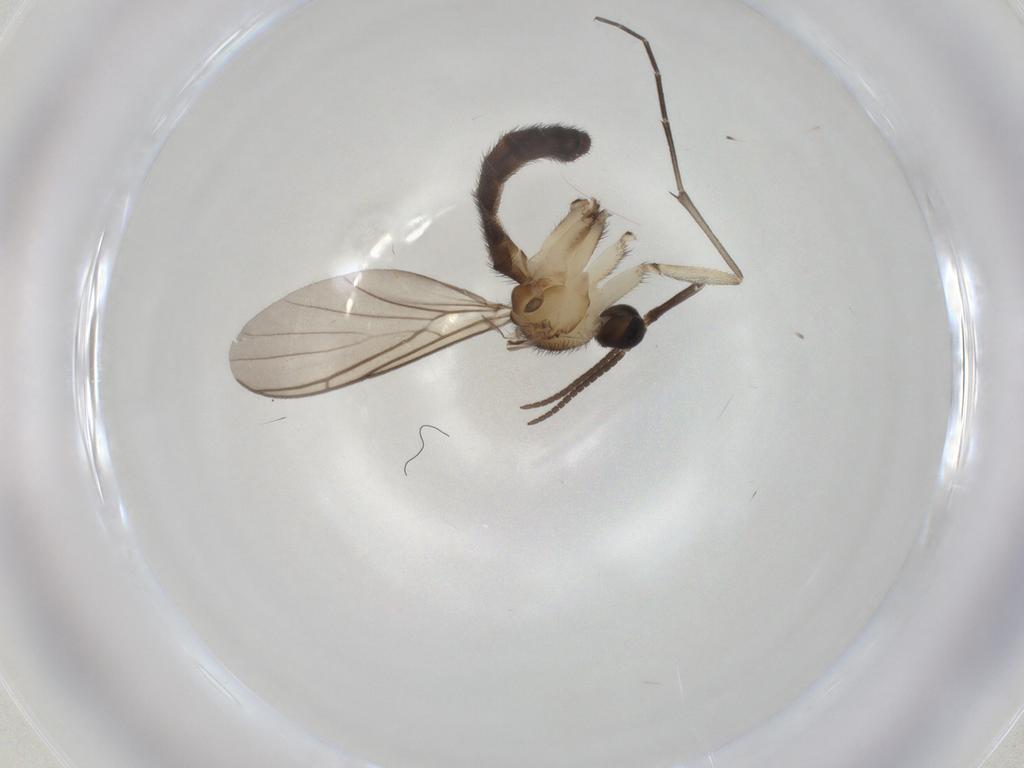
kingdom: Animalia
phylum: Arthropoda
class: Insecta
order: Diptera
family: Keroplatidae
